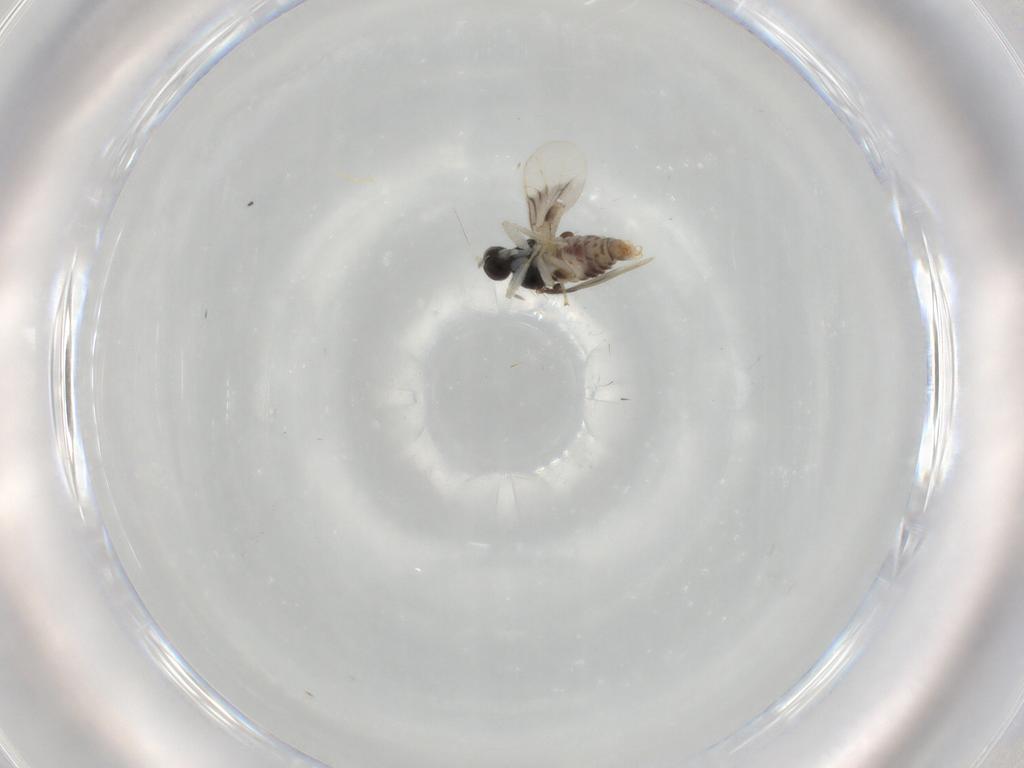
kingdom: Animalia
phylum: Arthropoda
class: Insecta
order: Diptera
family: Hybotidae
